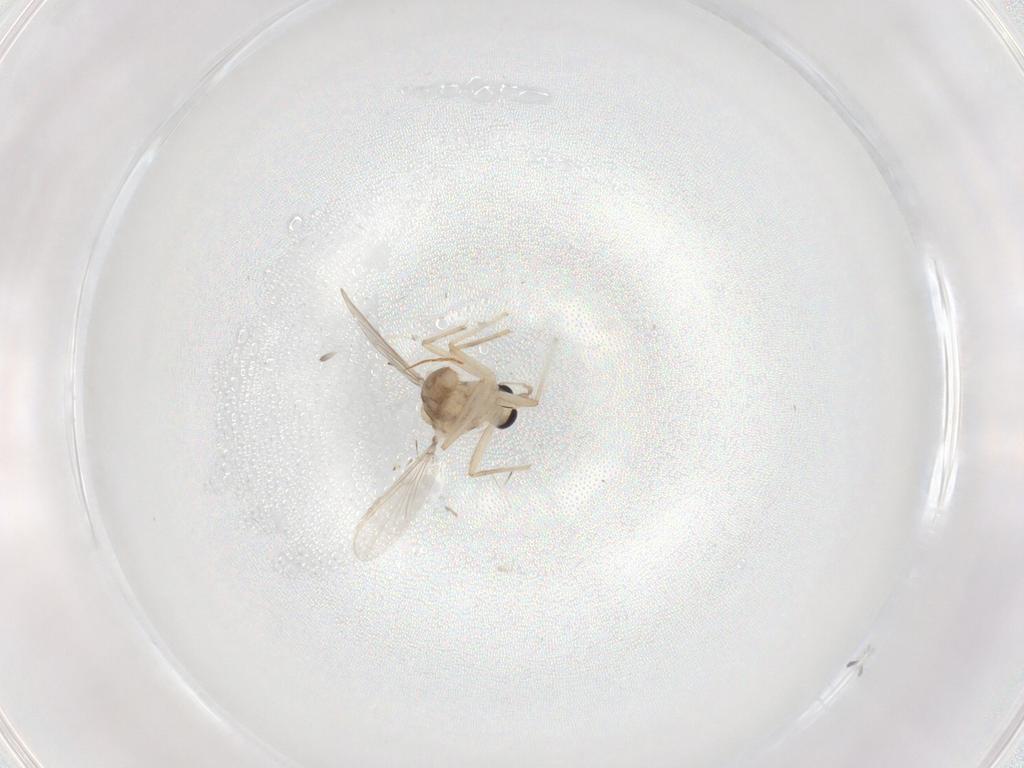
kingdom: Animalia
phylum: Arthropoda
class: Insecta
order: Diptera
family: Chironomidae
